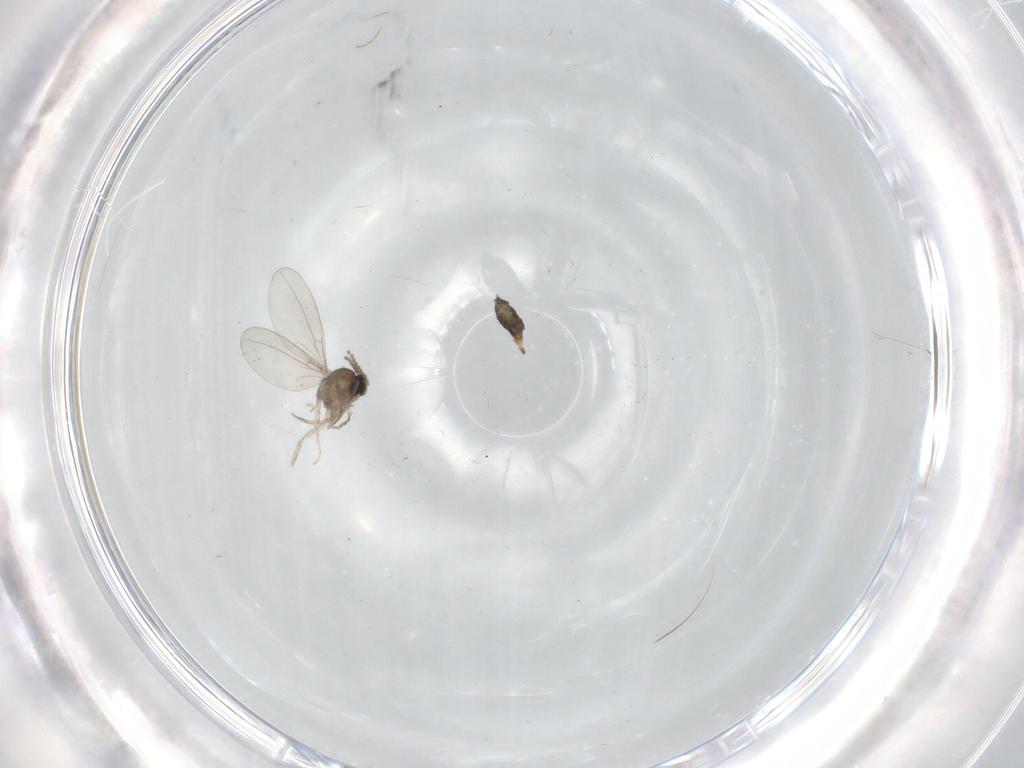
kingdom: Animalia
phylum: Arthropoda
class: Insecta
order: Diptera
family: Cecidomyiidae
